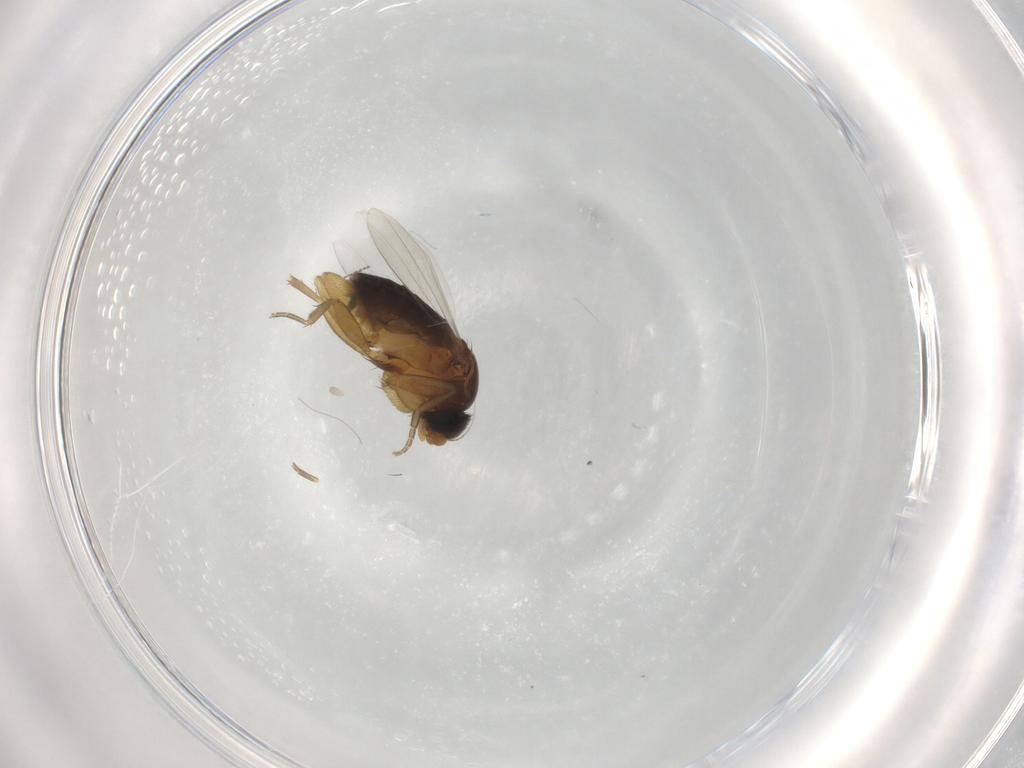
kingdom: Animalia
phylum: Arthropoda
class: Insecta
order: Diptera
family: Phoridae
